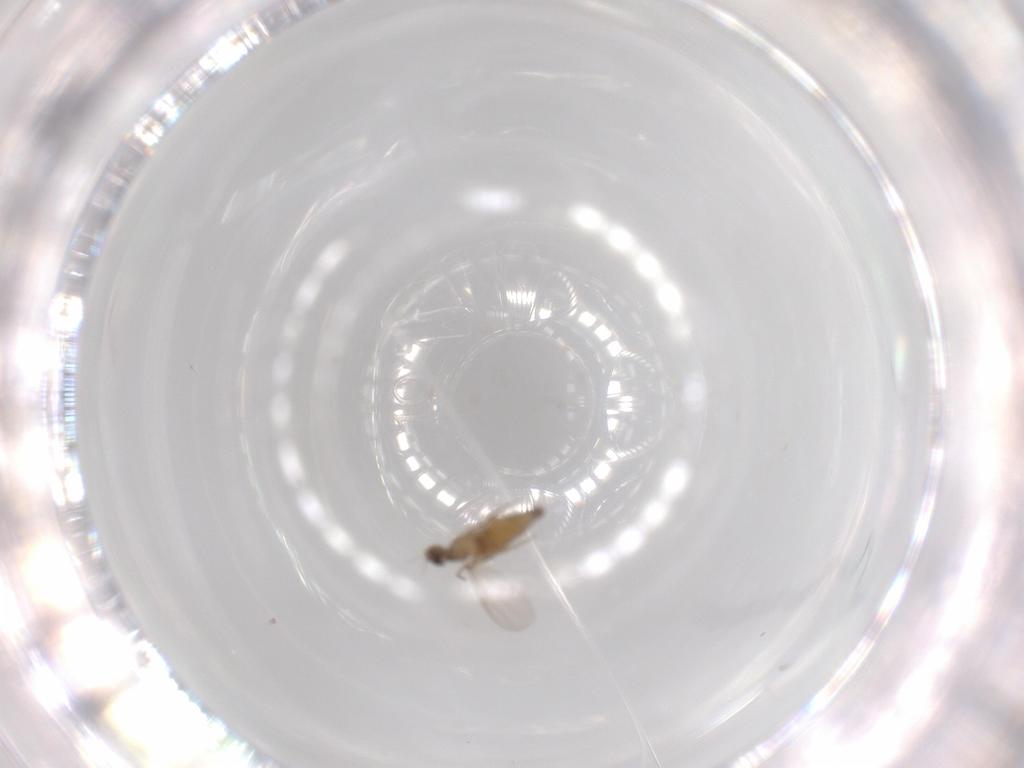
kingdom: Animalia
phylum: Arthropoda
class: Insecta
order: Diptera
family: Phoridae
